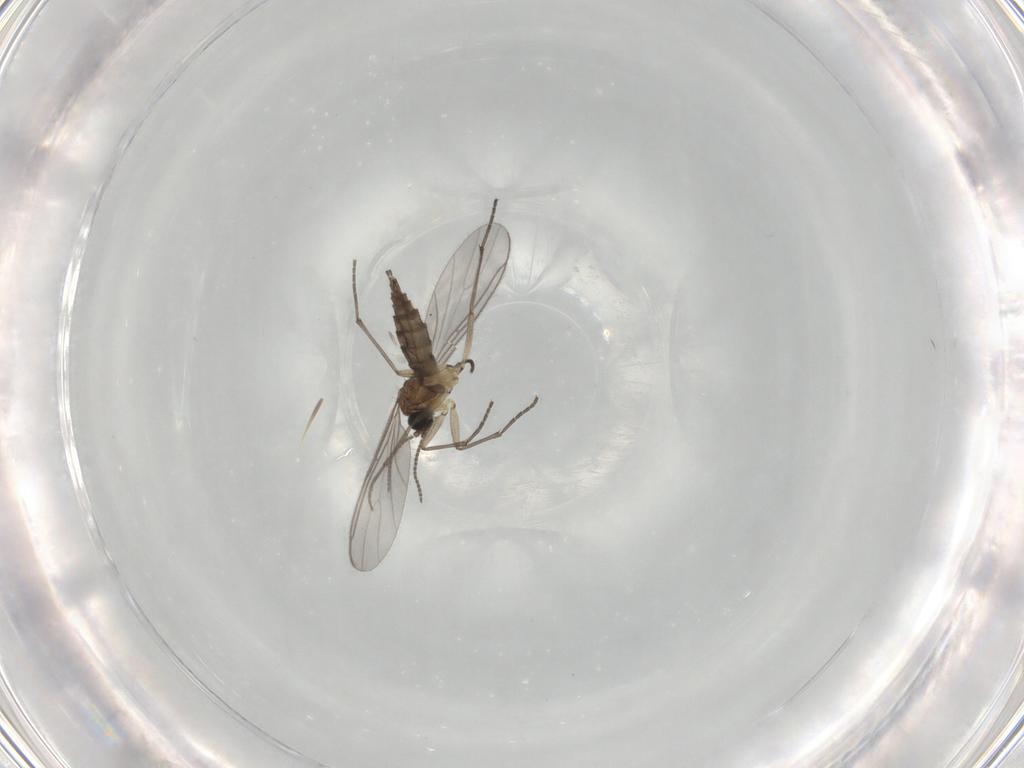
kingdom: Animalia
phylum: Arthropoda
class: Insecta
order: Diptera
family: Sciaridae
